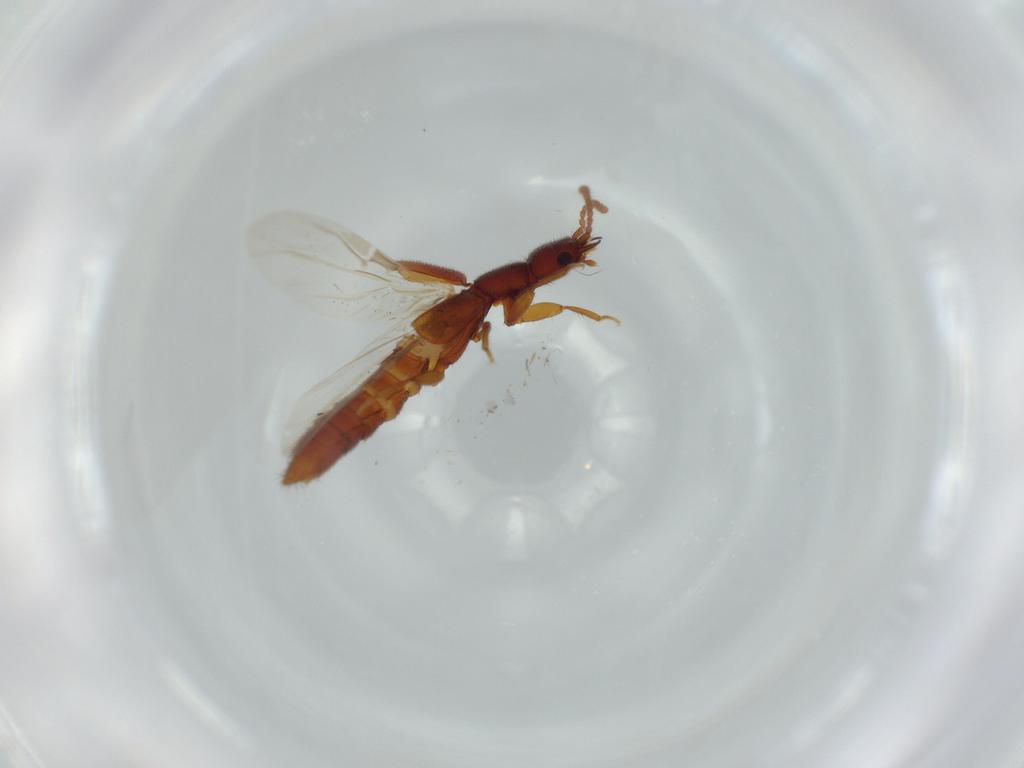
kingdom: Animalia
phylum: Arthropoda
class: Insecta
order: Coleoptera
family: Staphylinidae
